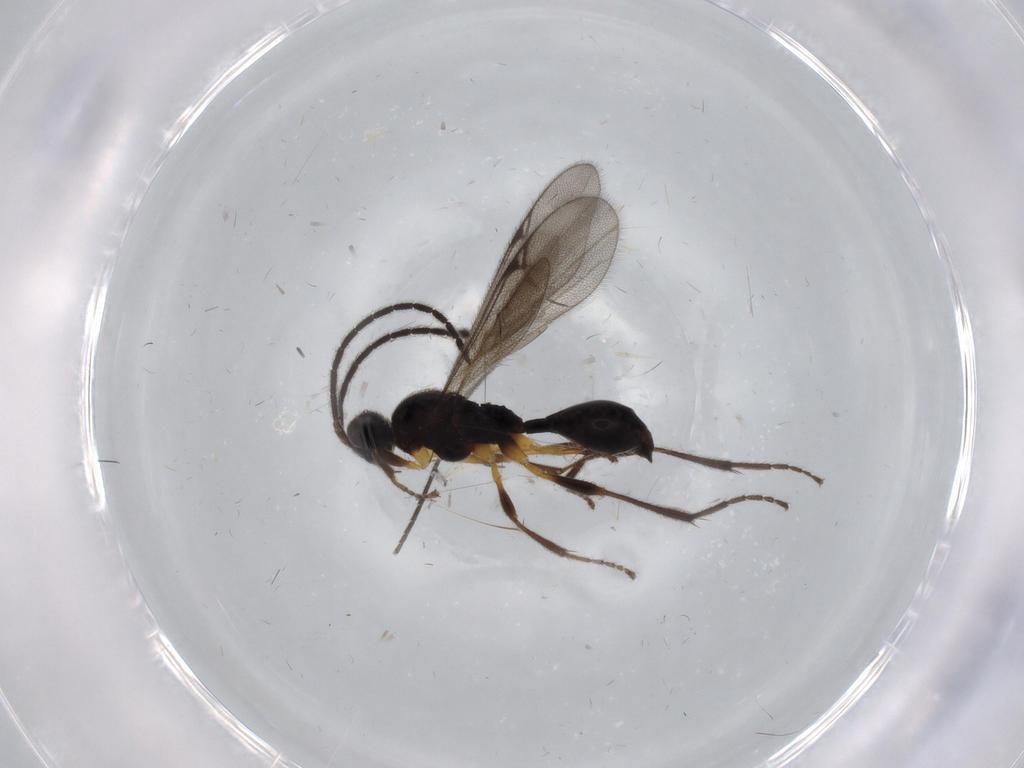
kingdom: Animalia
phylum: Arthropoda
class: Insecta
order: Hymenoptera
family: Proctotrupidae
